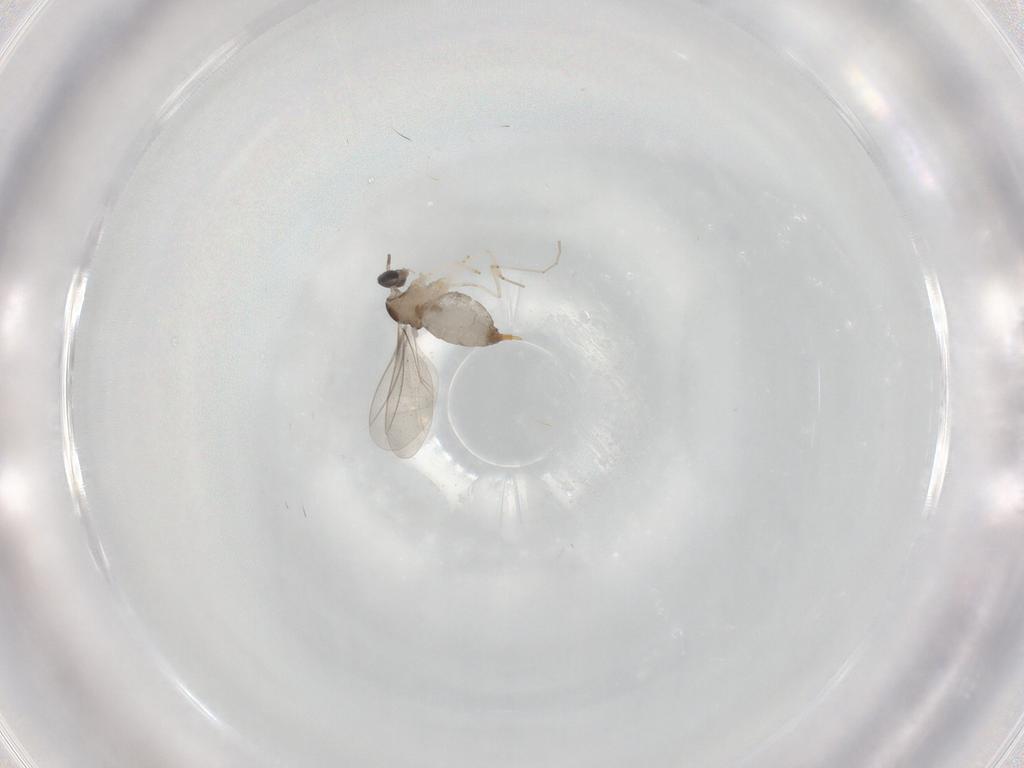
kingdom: Animalia
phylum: Arthropoda
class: Insecta
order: Diptera
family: Ceratopogonidae
